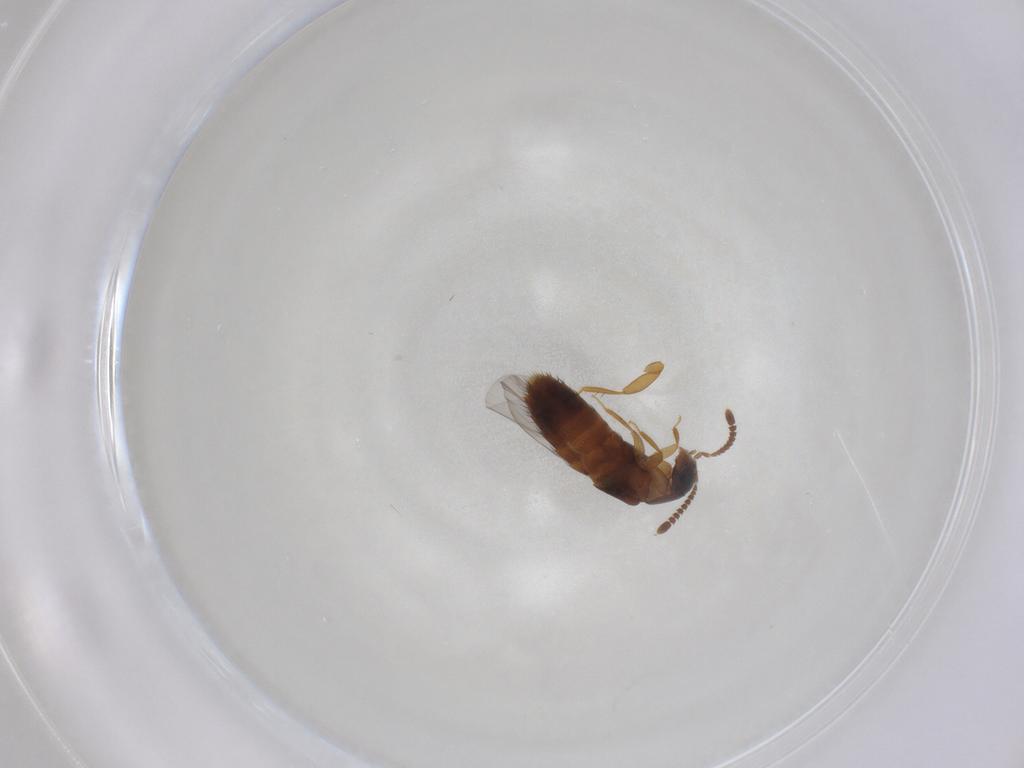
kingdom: Animalia
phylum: Arthropoda
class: Insecta
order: Coleoptera
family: Staphylinidae
